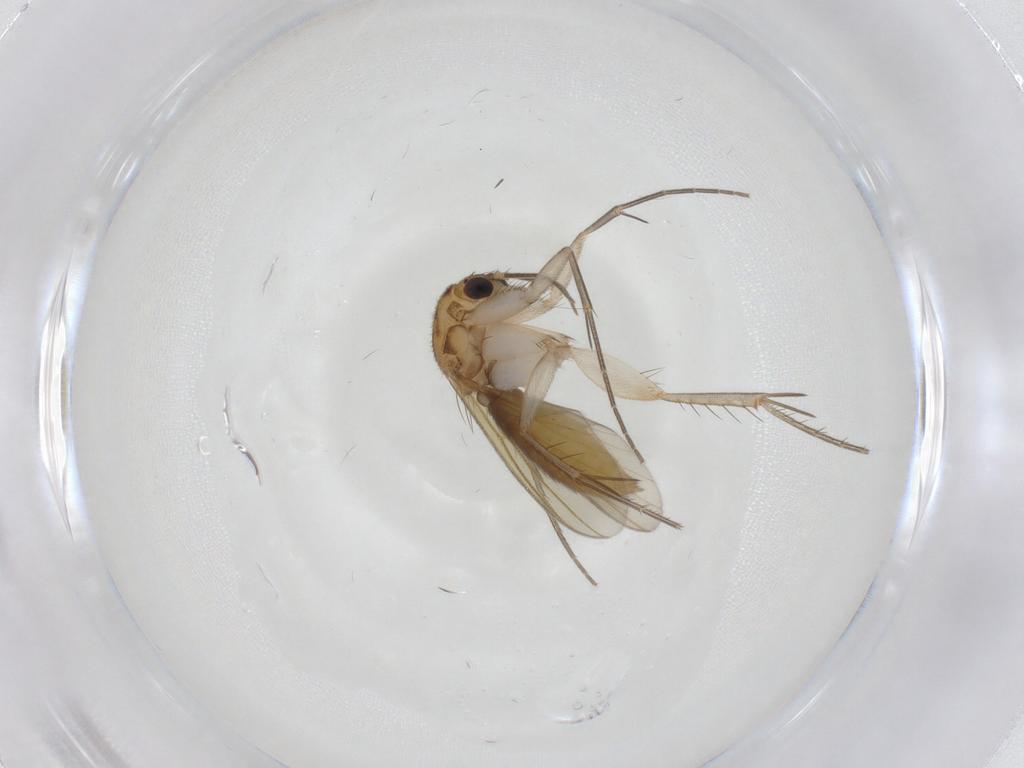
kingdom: Animalia
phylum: Arthropoda
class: Insecta
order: Diptera
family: Mycetophilidae
